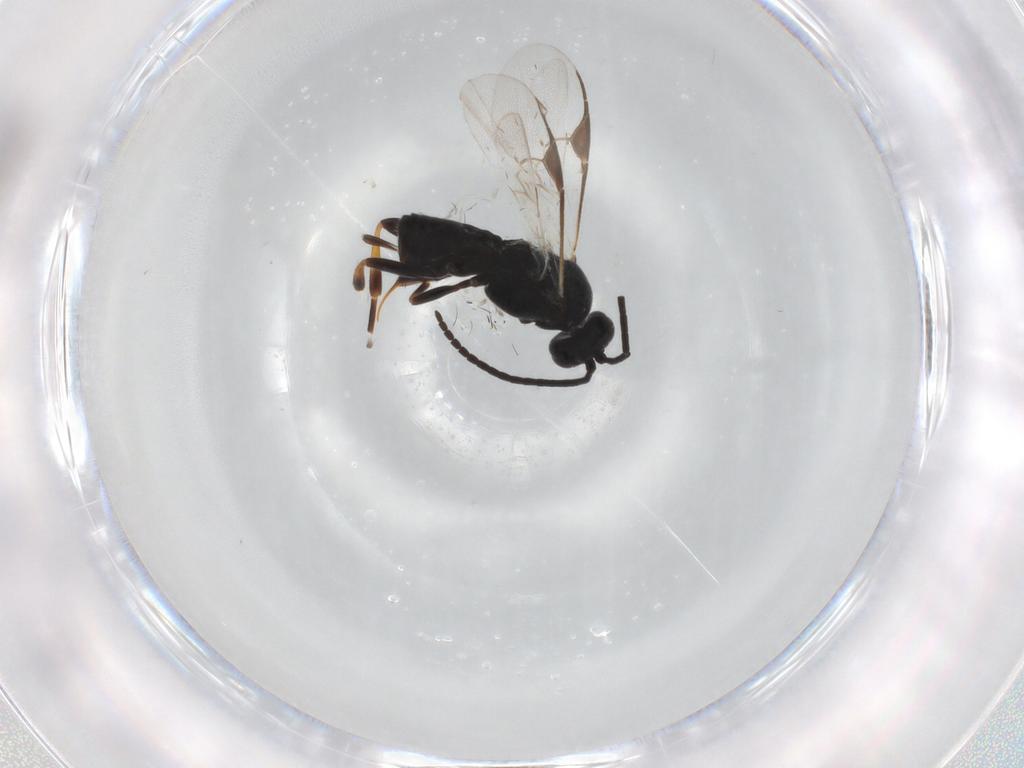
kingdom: Animalia
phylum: Arthropoda
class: Insecta
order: Hymenoptera
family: Braconidae
